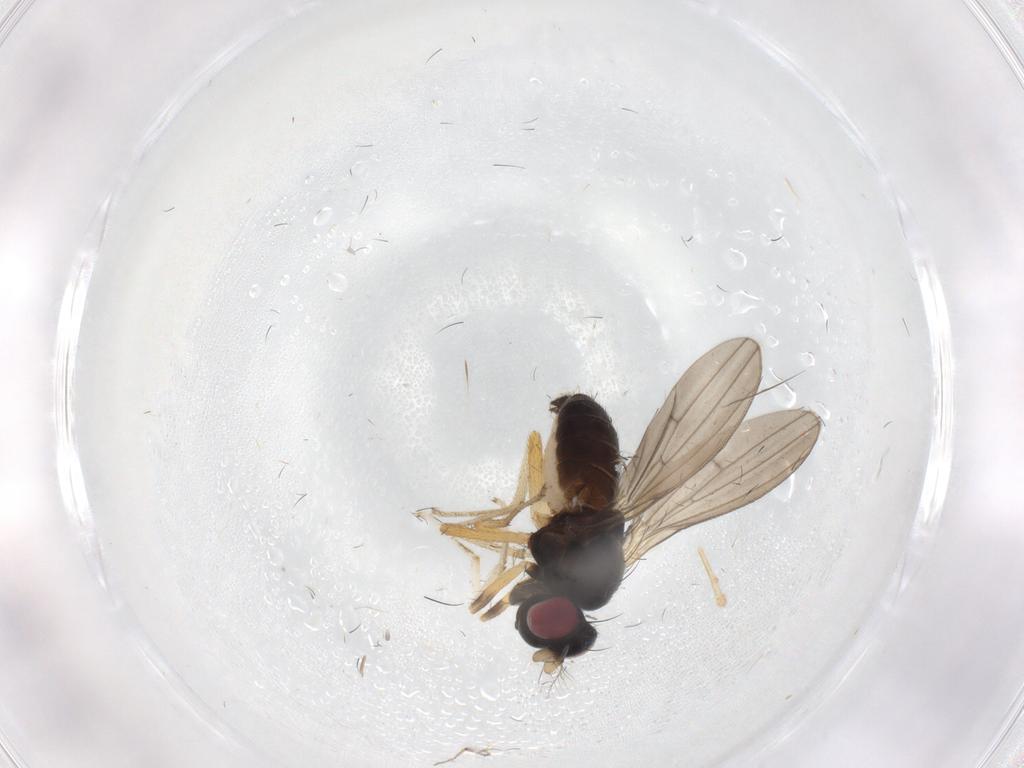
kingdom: Animalia
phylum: Arthropoda
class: Insecta
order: Diptera
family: Lauxaniidae
